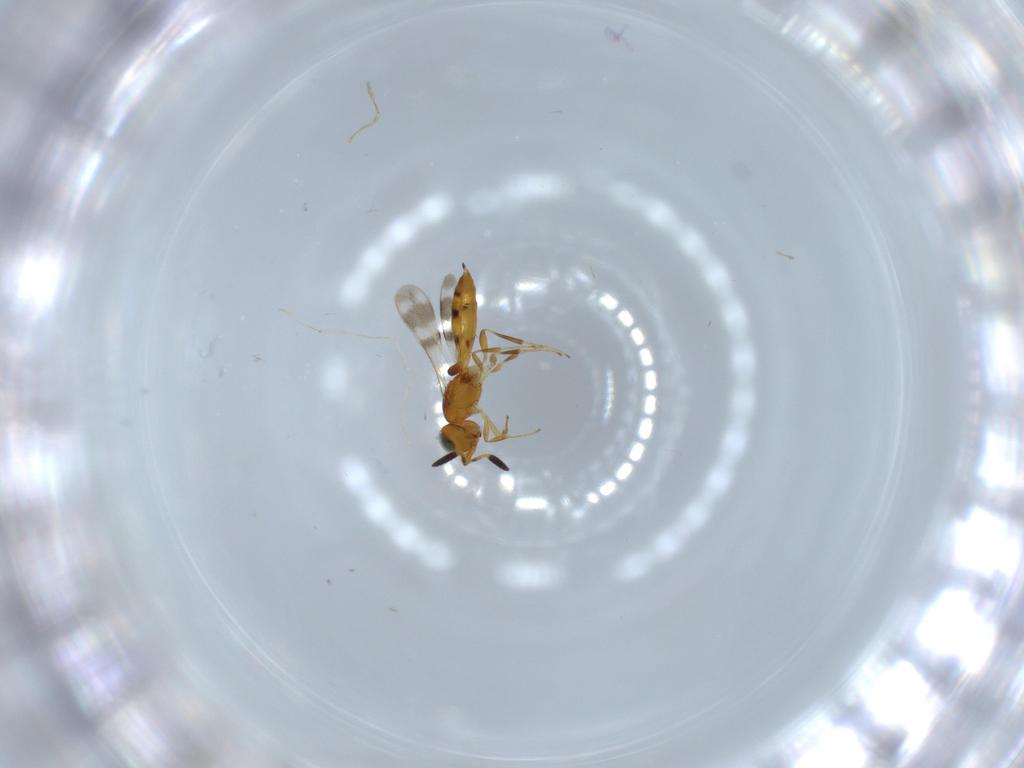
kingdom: Animalia
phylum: Arthropoda
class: Insecta
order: Hymenoptera
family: Scelionidae
